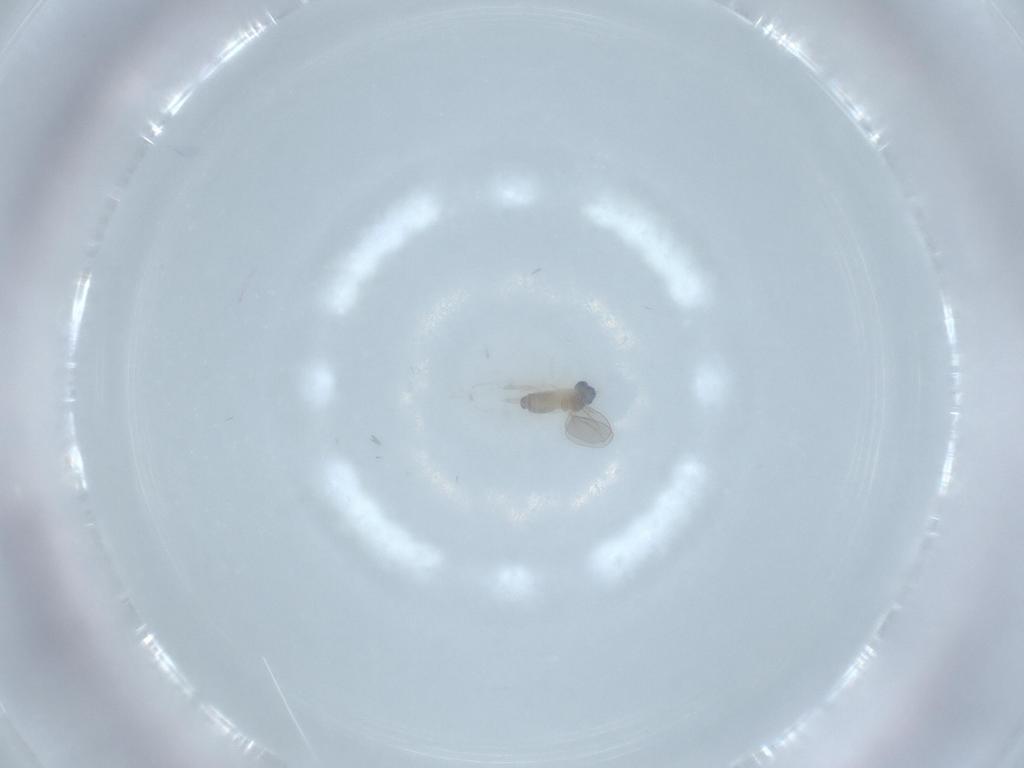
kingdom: Animalia
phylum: Arthropoda
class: Insecta
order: Diptera
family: Cecidomyiidae
